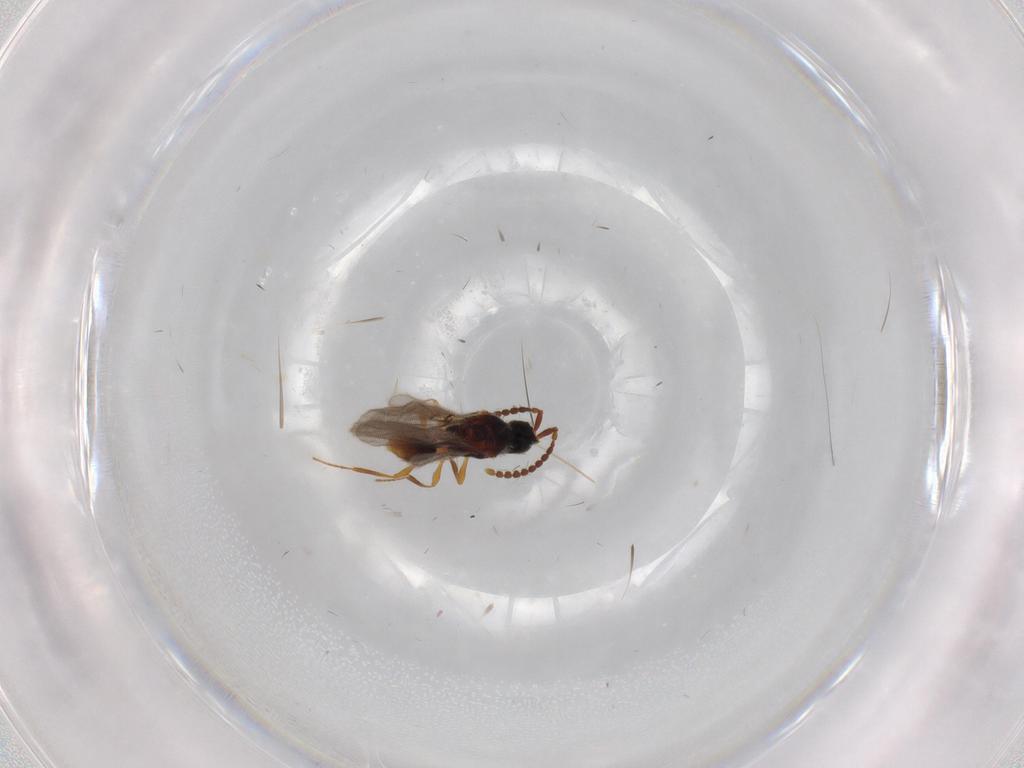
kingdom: Animalia
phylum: Arthropoda
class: Insecta
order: Hymenoptera
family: Diapriidae
